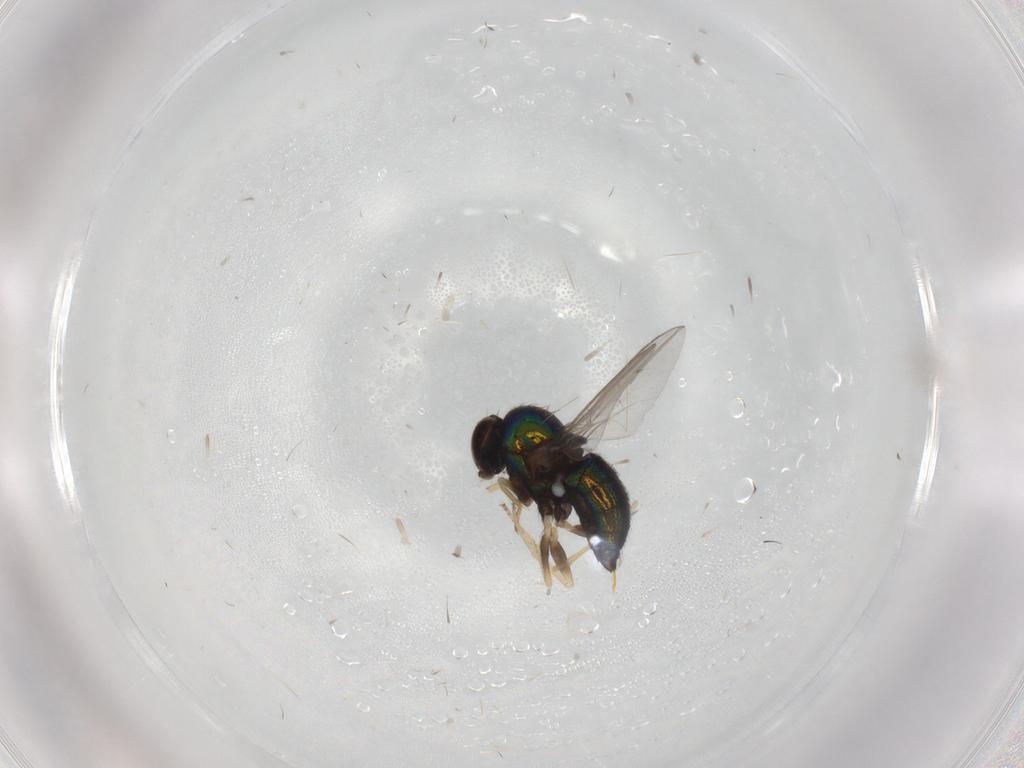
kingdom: Animalia
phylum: Arthropoda
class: Insecta
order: Diptera
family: Dolichopodidae
